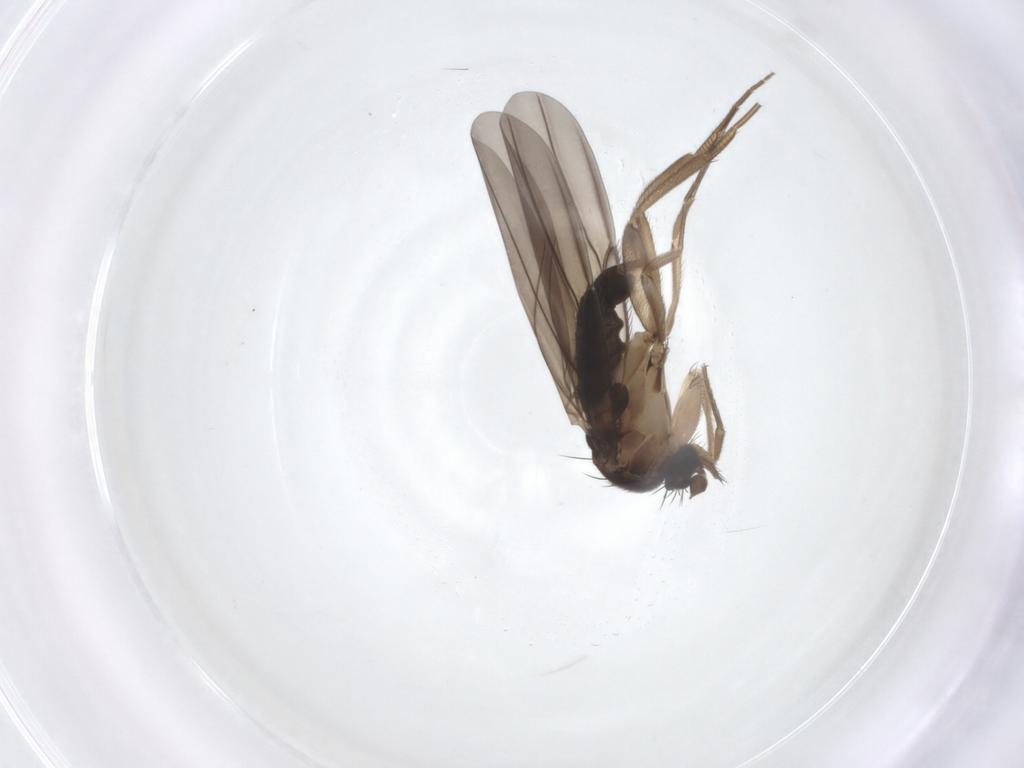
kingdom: Animalia
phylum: Arthropoda
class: Insecta
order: Diptera
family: Phoridae
